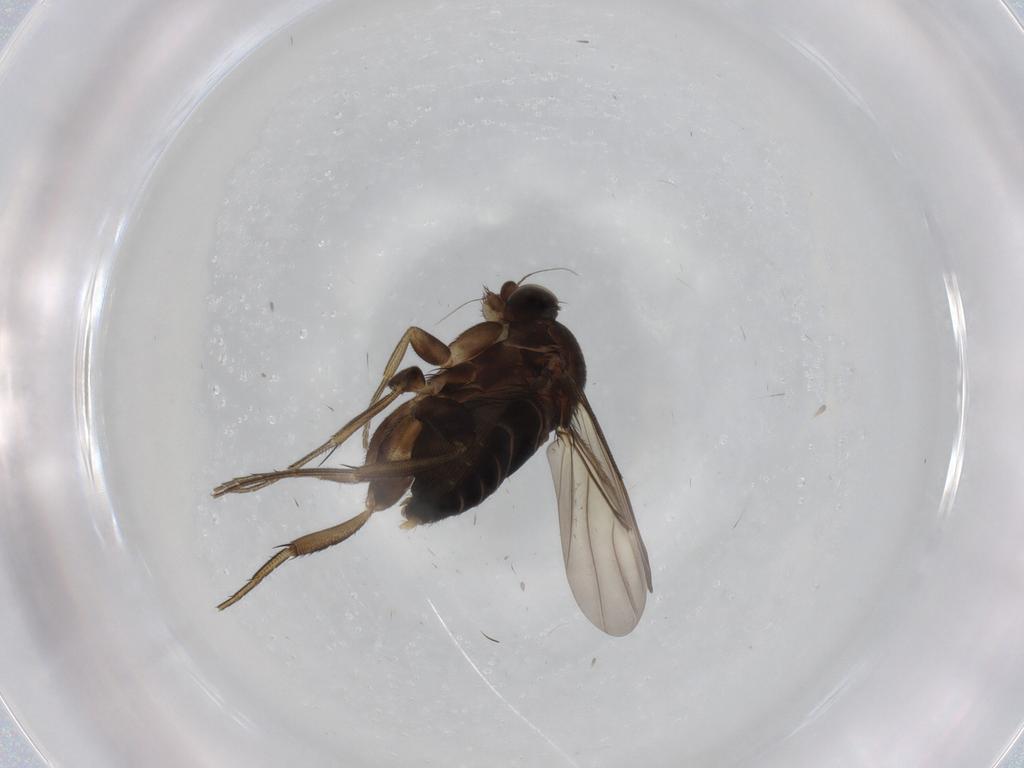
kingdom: Animalia
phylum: Arthropoda
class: Insecta
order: Diptera
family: Phoridae
